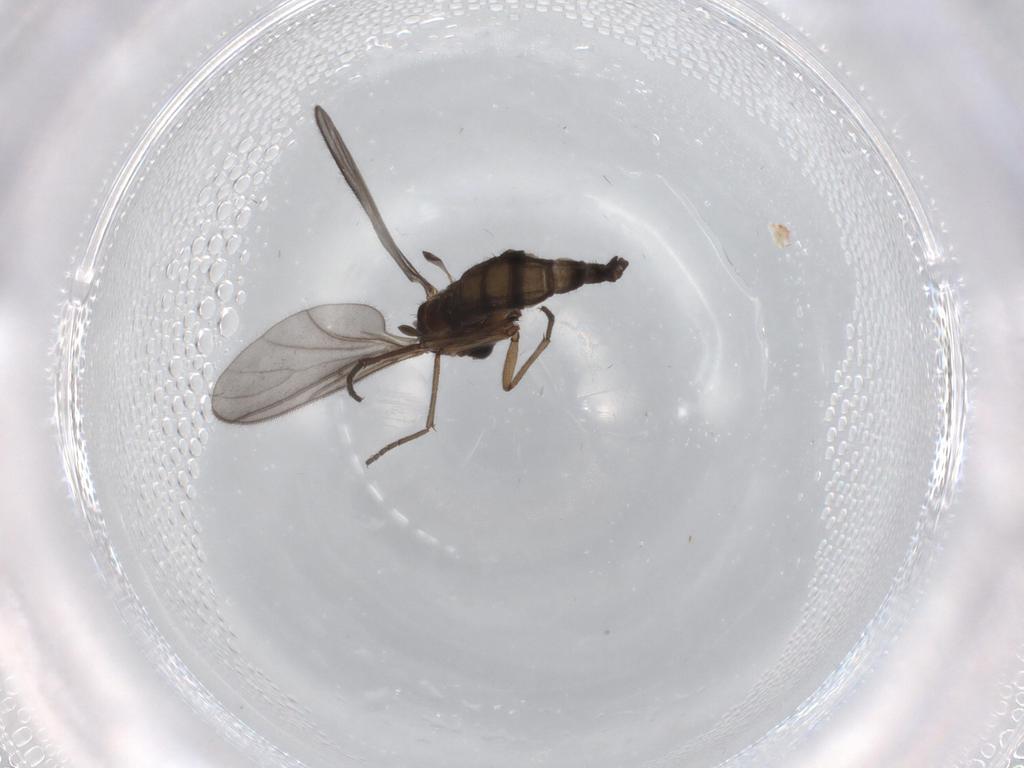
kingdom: Animalia
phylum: Arthropoda
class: Insecta
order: Diptera
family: Sciaridae
